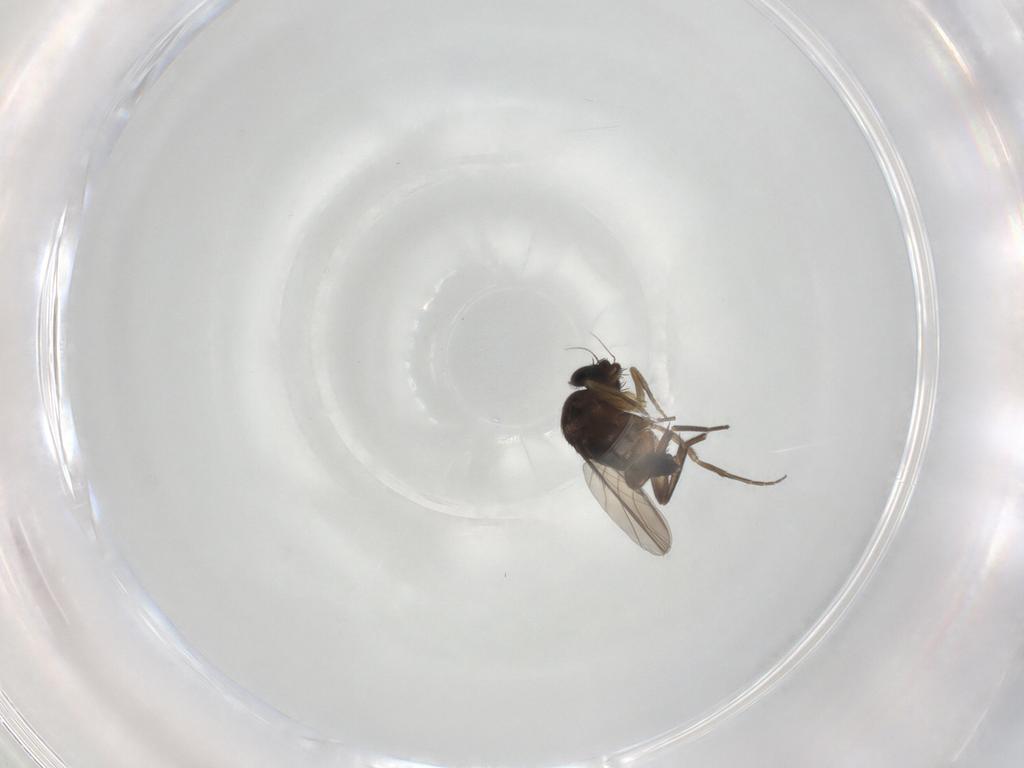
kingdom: Animalia
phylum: Arthropoda
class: Insecta
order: Diptera
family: Phoridae
